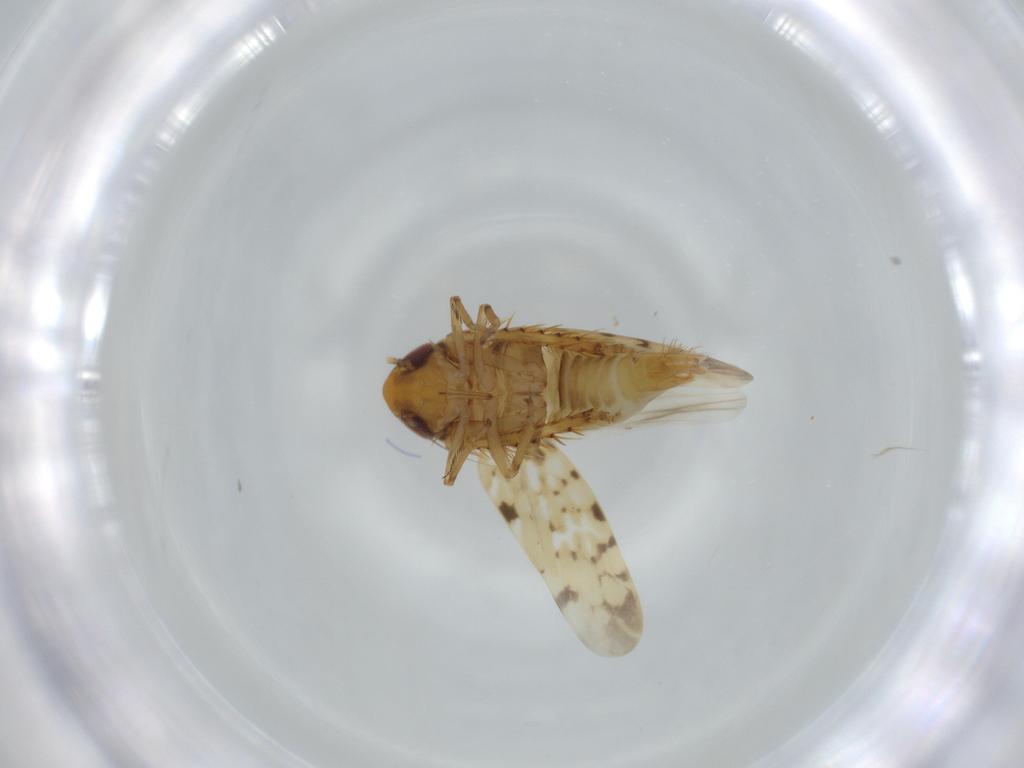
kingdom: Animalia
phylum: Arthropoda
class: Insecta
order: Hemiptera
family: Cicadellidae
